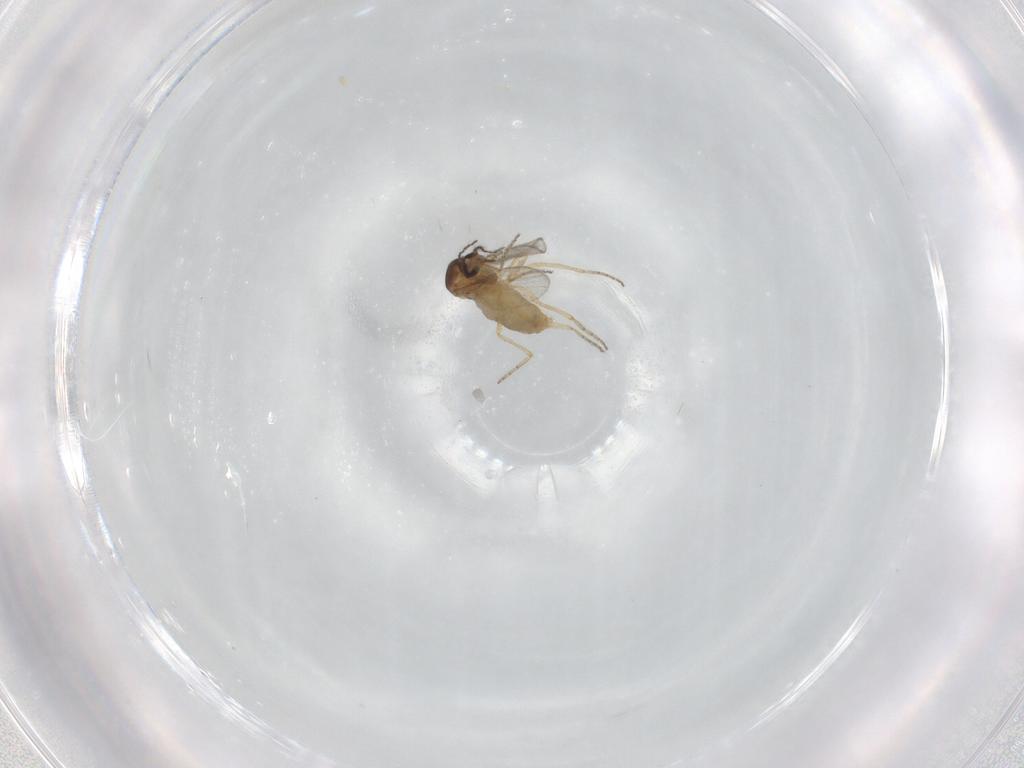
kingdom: Animalia
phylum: Arthropoda
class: Insecta
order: Diptera
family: Ceratopogonidae
